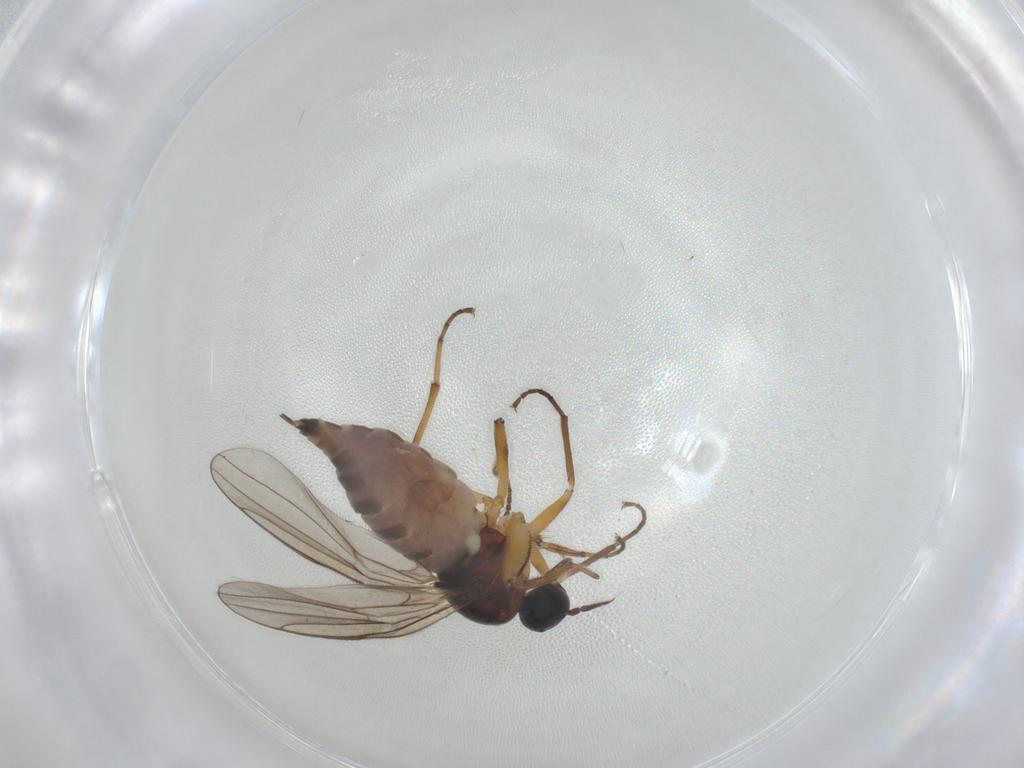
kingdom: Animalia
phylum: Arthropoda
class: Insecta
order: Diptera
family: Hybotidae
